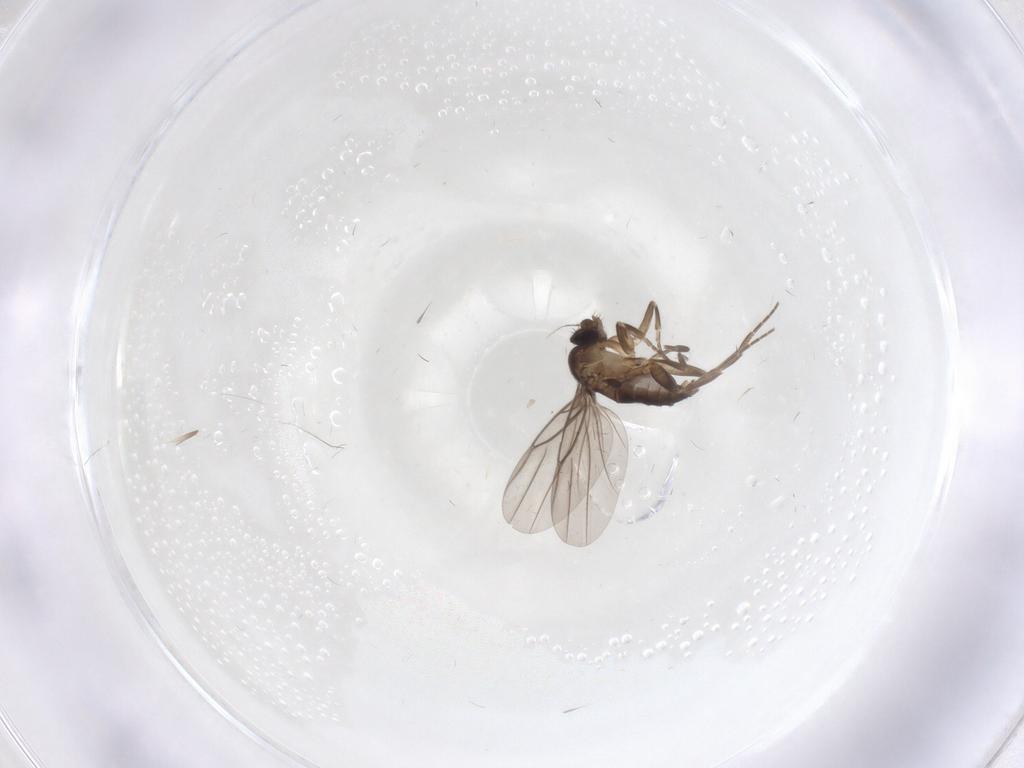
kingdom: Animalia
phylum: Arthropoda
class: Insecta
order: Diptera
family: Phoridae
